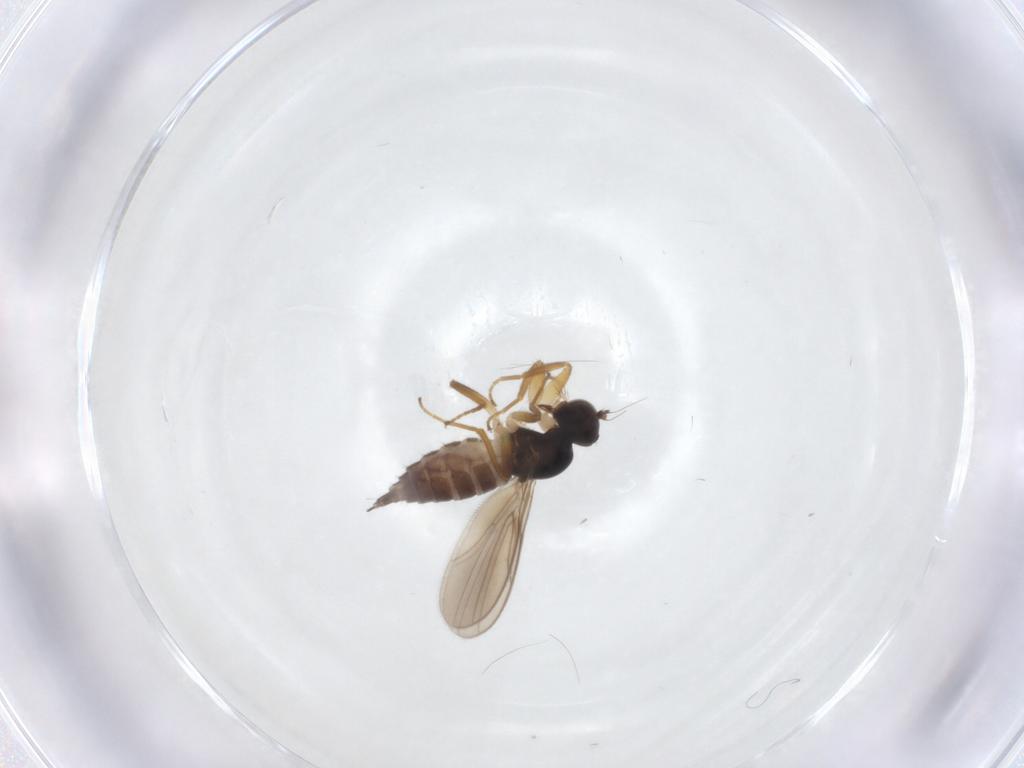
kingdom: Animalia
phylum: Arthropoda
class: Insecta
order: Diptera
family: Hybotidae
